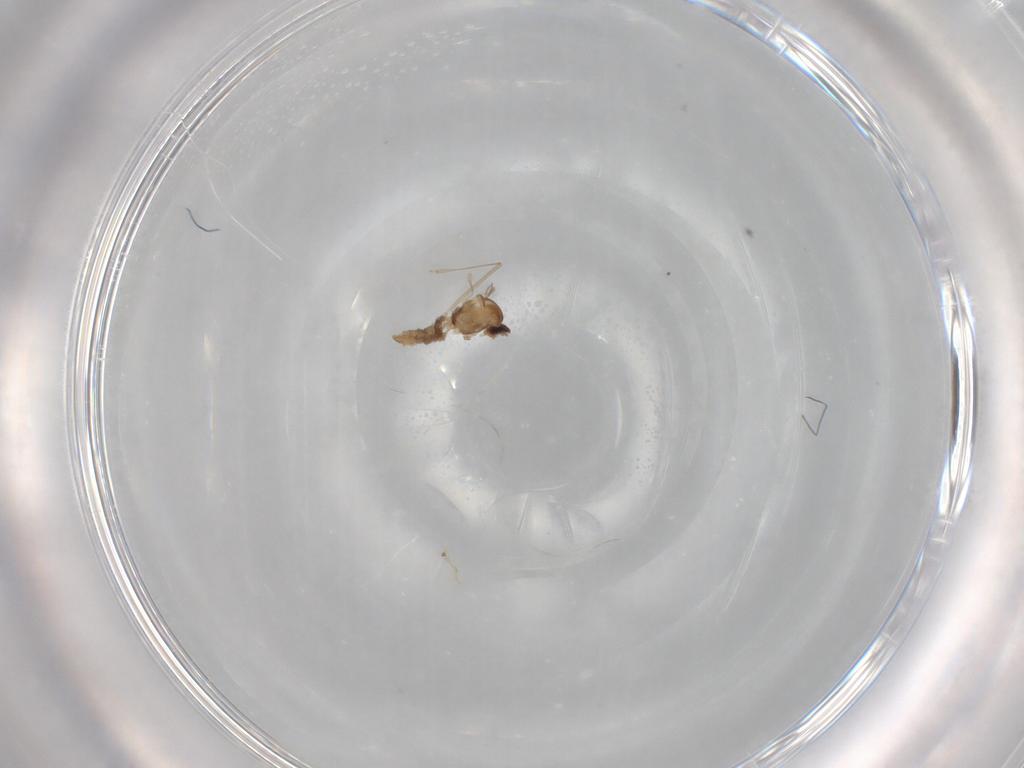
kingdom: Animalia
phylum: Arthropoda
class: Insecta
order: Diptera
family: Cecidomyiidae
